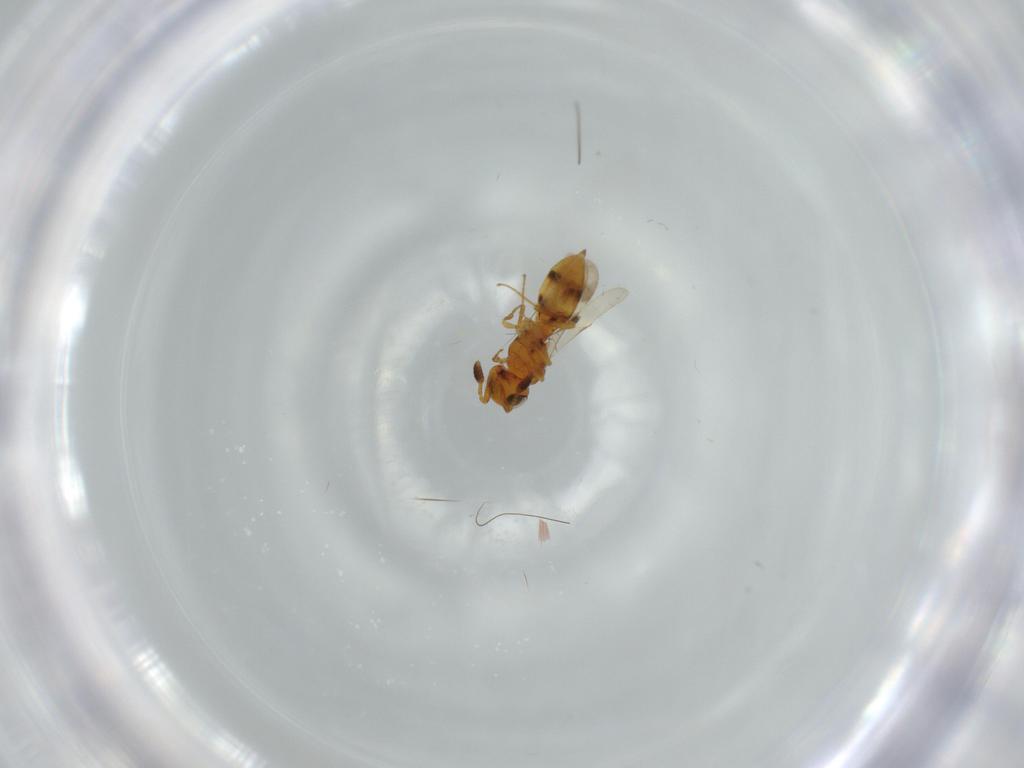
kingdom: Animalia
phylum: Arthropoda
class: Insecta
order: Hymenoptera
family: Scelionidae
